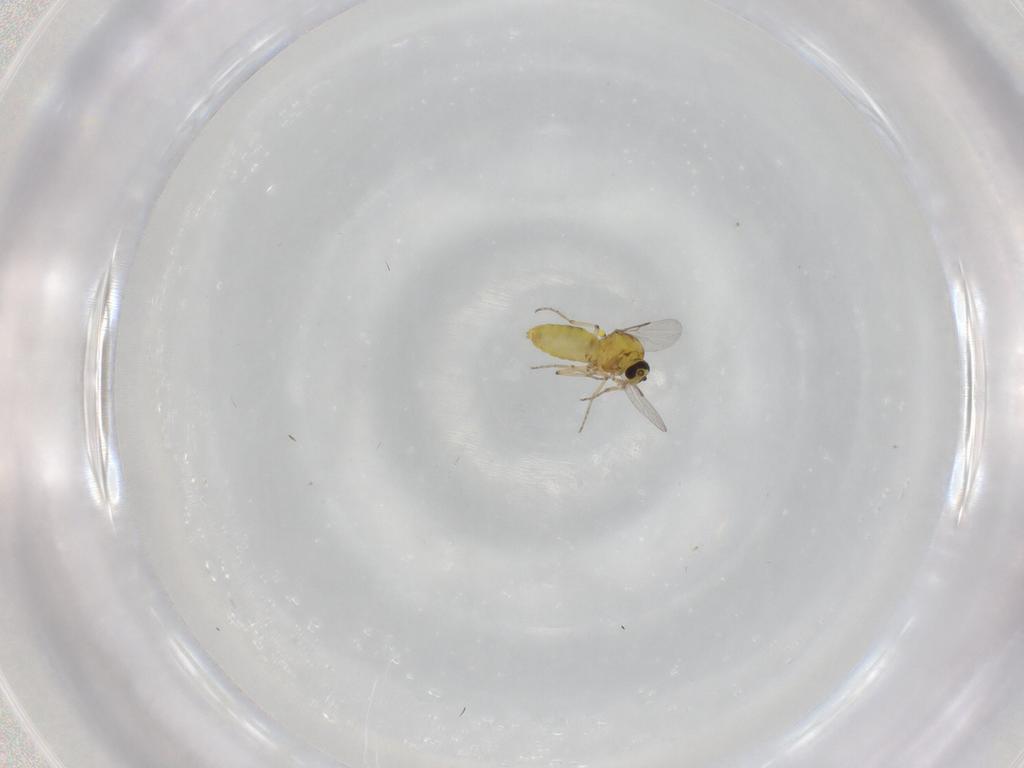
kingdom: Animalia
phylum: Arthropoda
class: Insecta
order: Diptera
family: Ceratopogonidae
